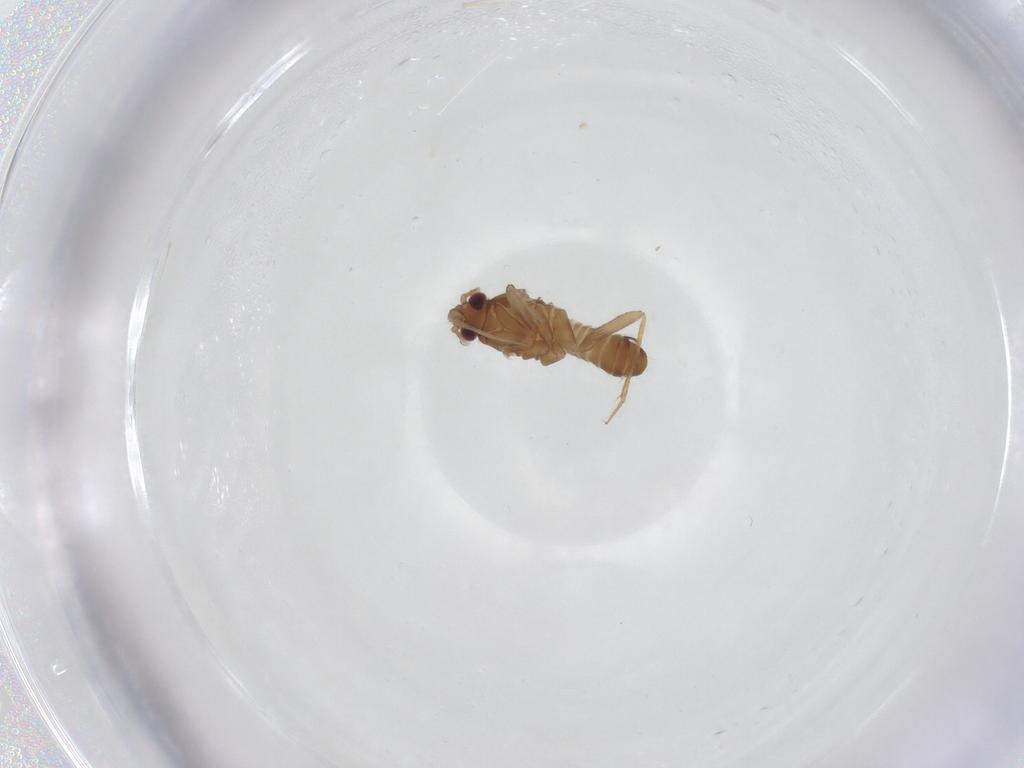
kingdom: Animalia
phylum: Arthropoda
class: Insecta
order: Hemiptera
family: Ceratocombidae
